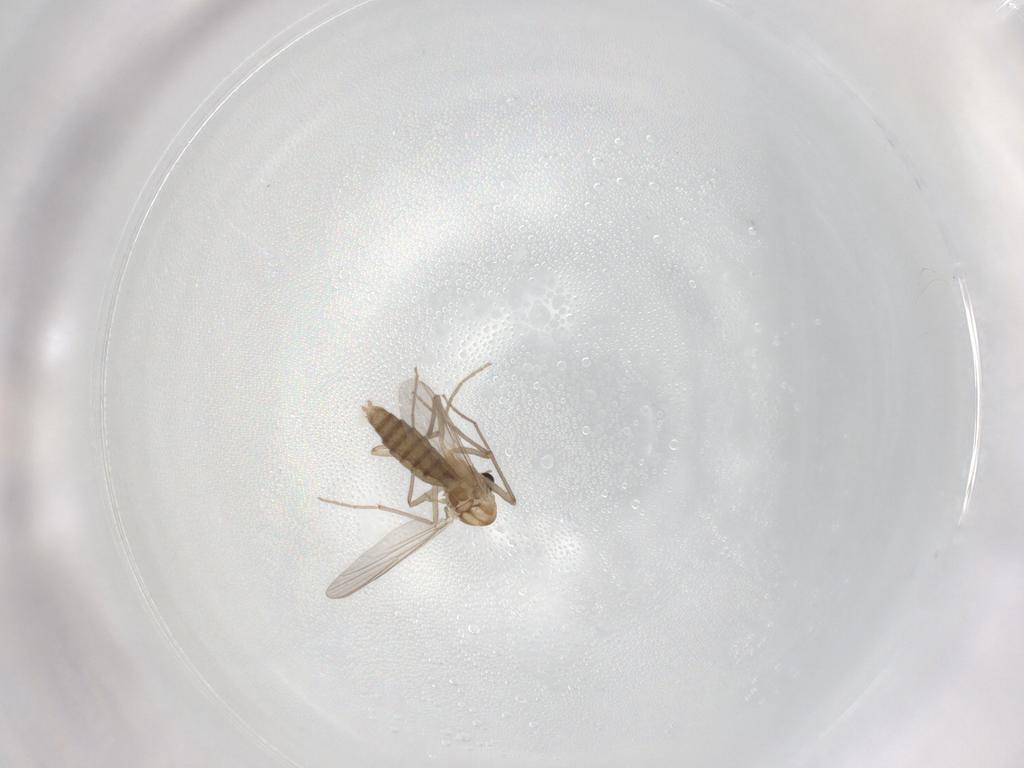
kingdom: Animalia
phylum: Arthropoda
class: Insecta
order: Diptera
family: Chironomidae
